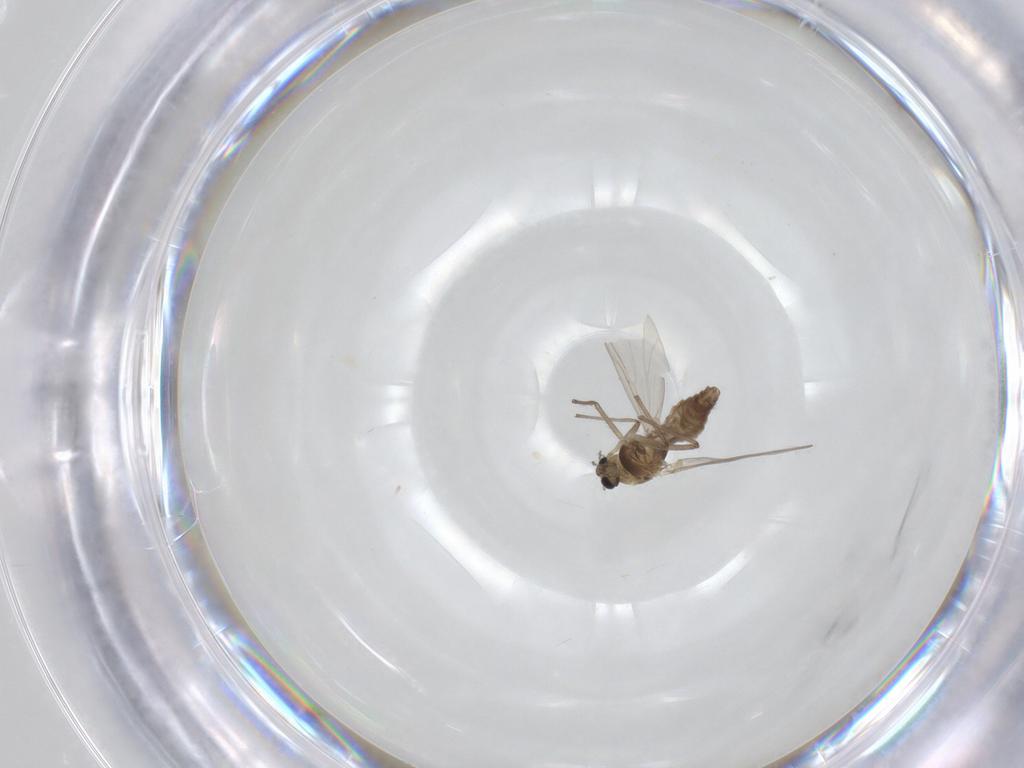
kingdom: Animalia
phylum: Arthropoda
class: Insecta
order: Diptera
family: Chironomidae
